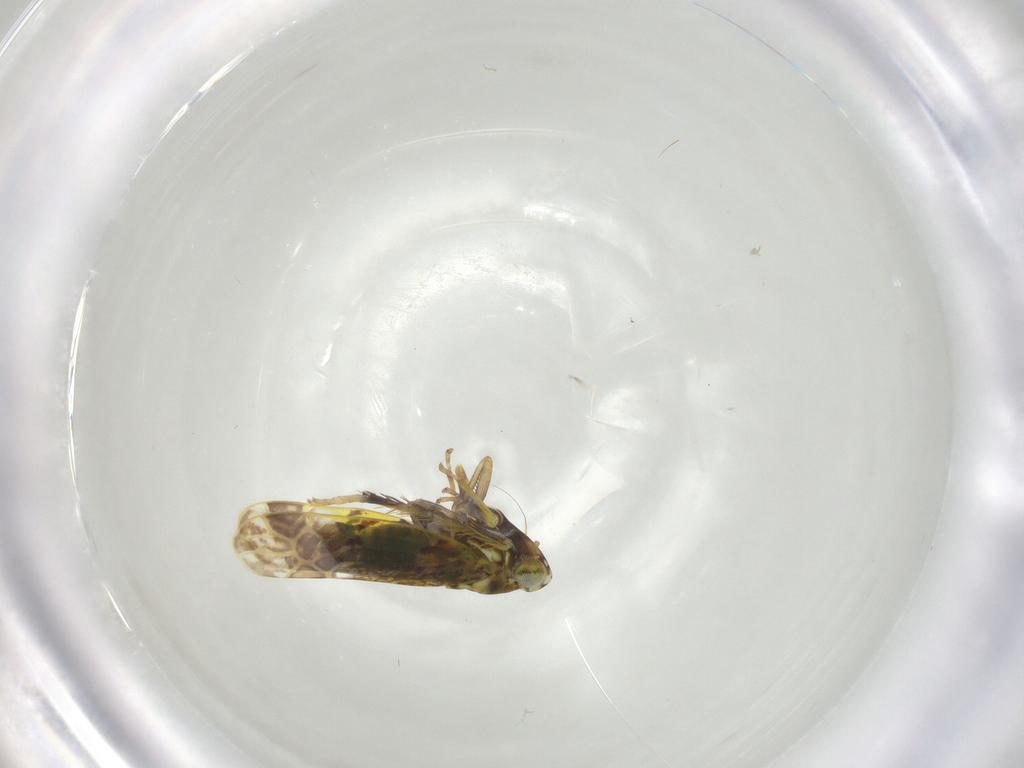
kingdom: Animalia
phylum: Arthropoda
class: Insecta
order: Hemiptera
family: Cicadellidae
